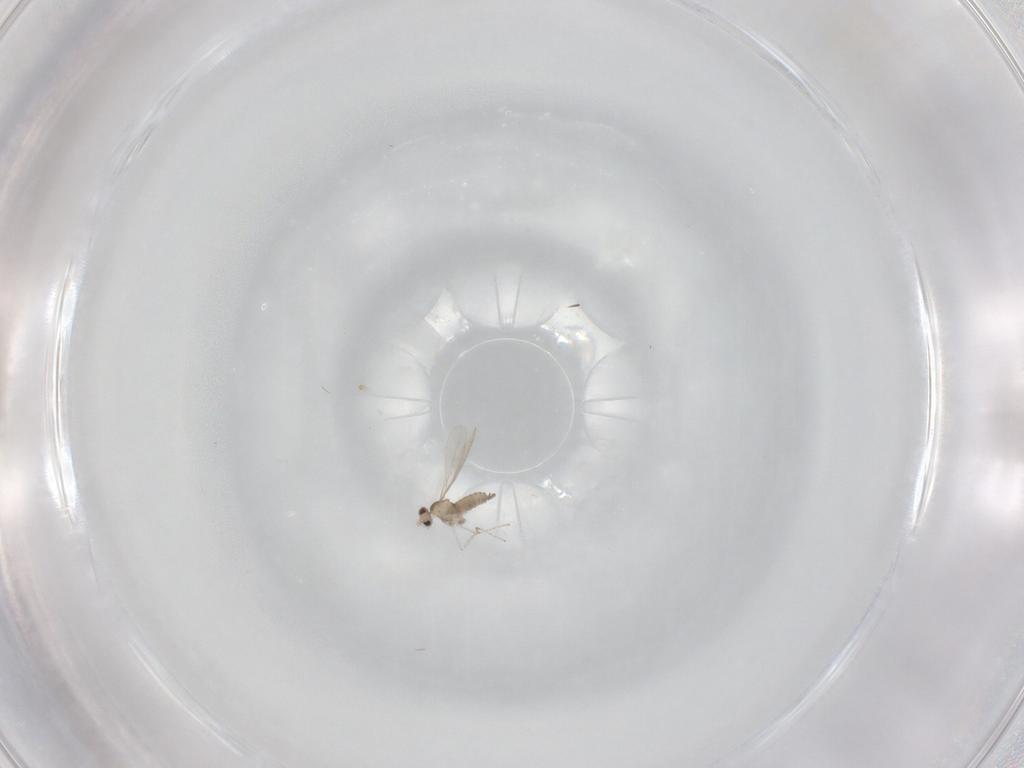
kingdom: Animalia
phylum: Arthropoda
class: Insecta
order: Diptera
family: Cecidomyiidae
